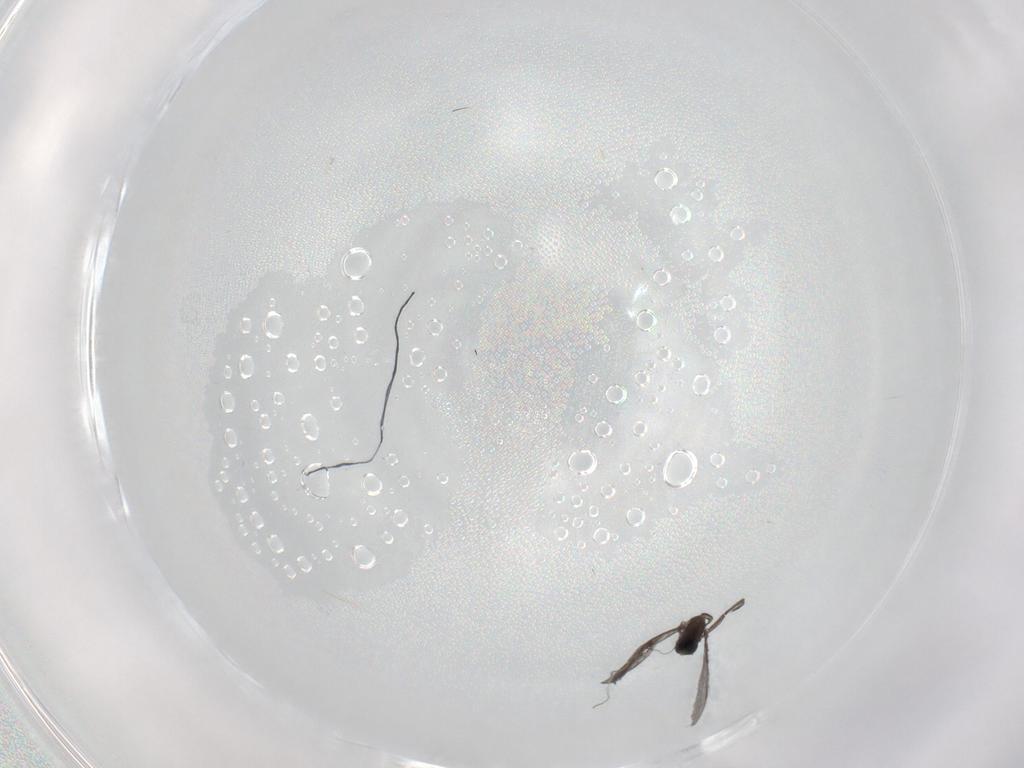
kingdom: Animalia
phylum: Arthropoda
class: Insecta
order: Diptera
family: Sciaridae
